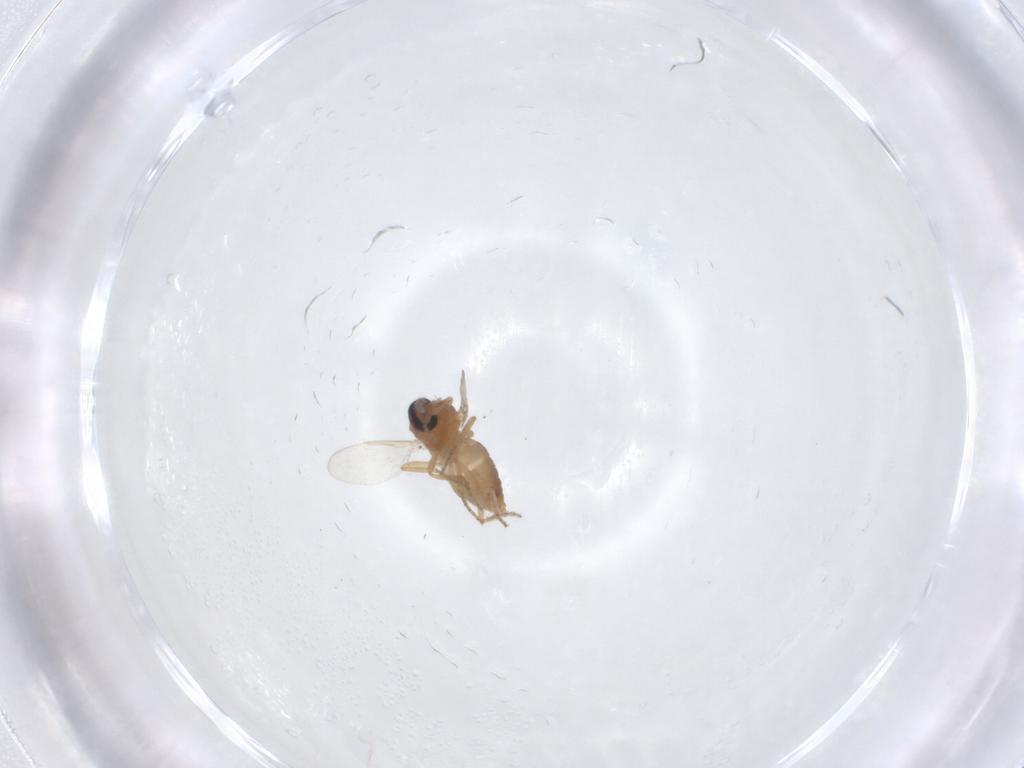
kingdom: Animalia
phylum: Arthropoda
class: Insecta
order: Diptera
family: Ceratopogonidae
